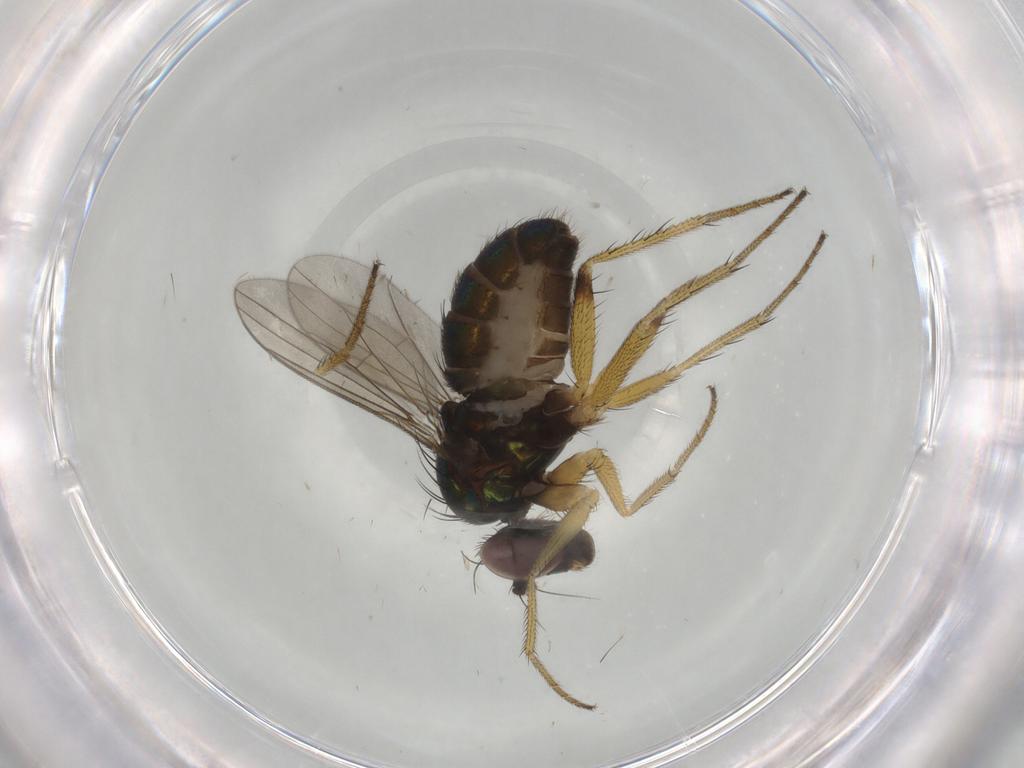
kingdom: Animalia
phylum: Arthropoda
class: Insecta
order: Diptera
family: Dolichopodidae
